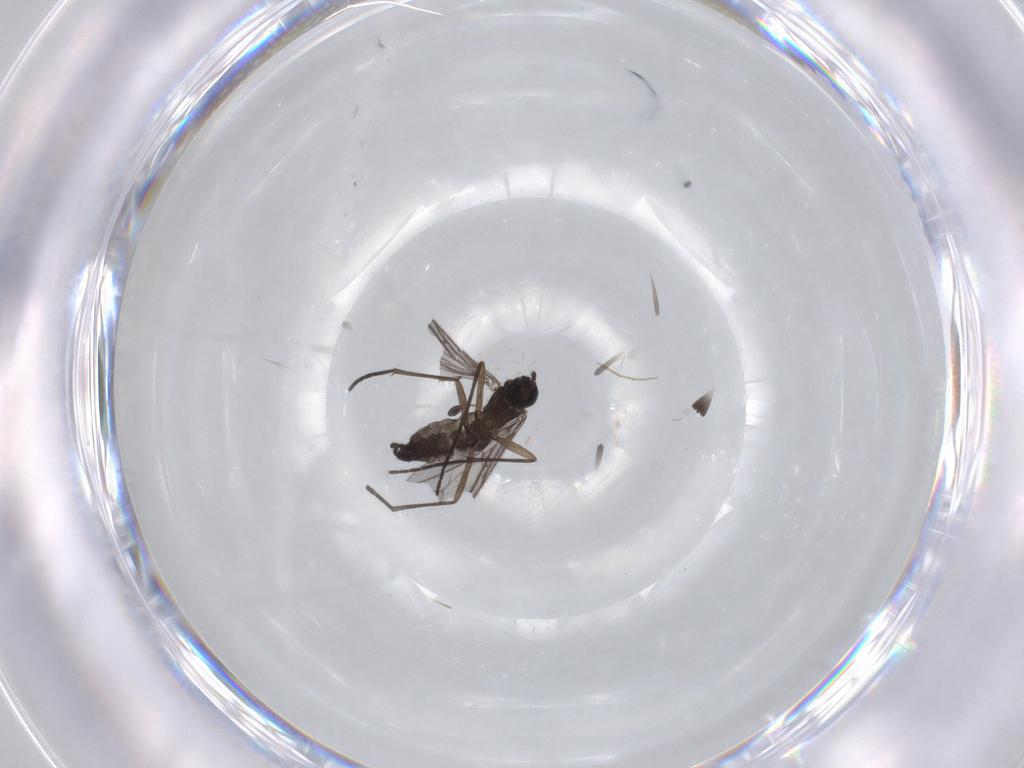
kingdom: Animalia
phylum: Arthropoda
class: Insecta
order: Diptera
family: Sciaridae
